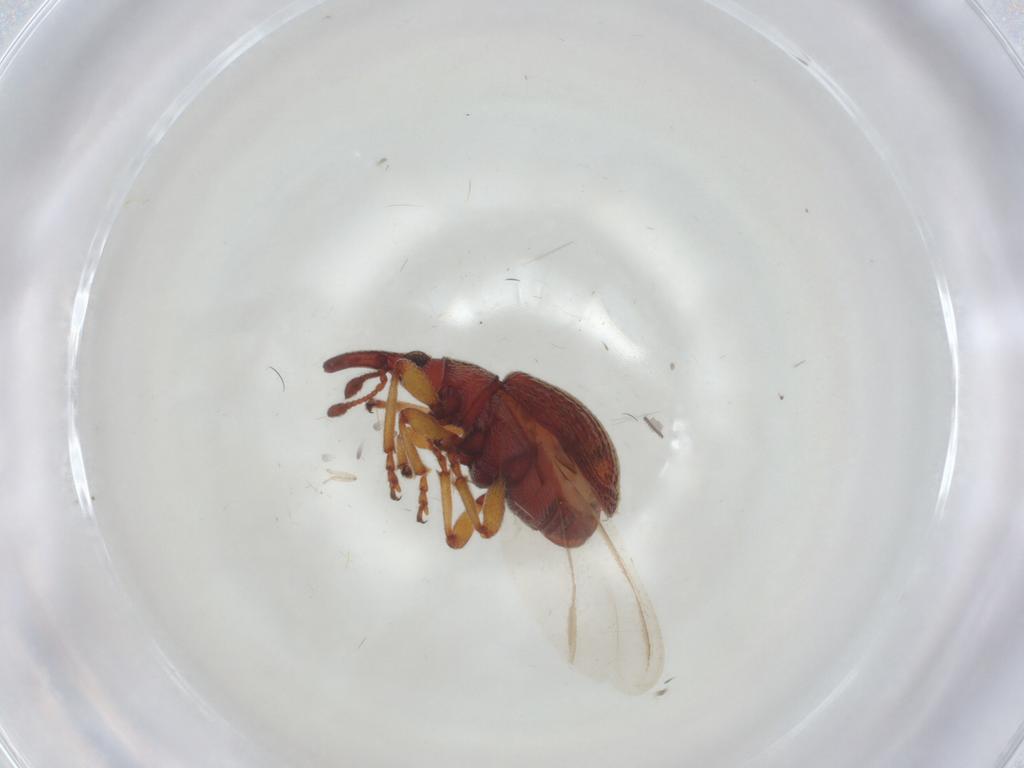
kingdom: Animalia
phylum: Arthropoda
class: Insecta
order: Coleoptera
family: Brentidae
